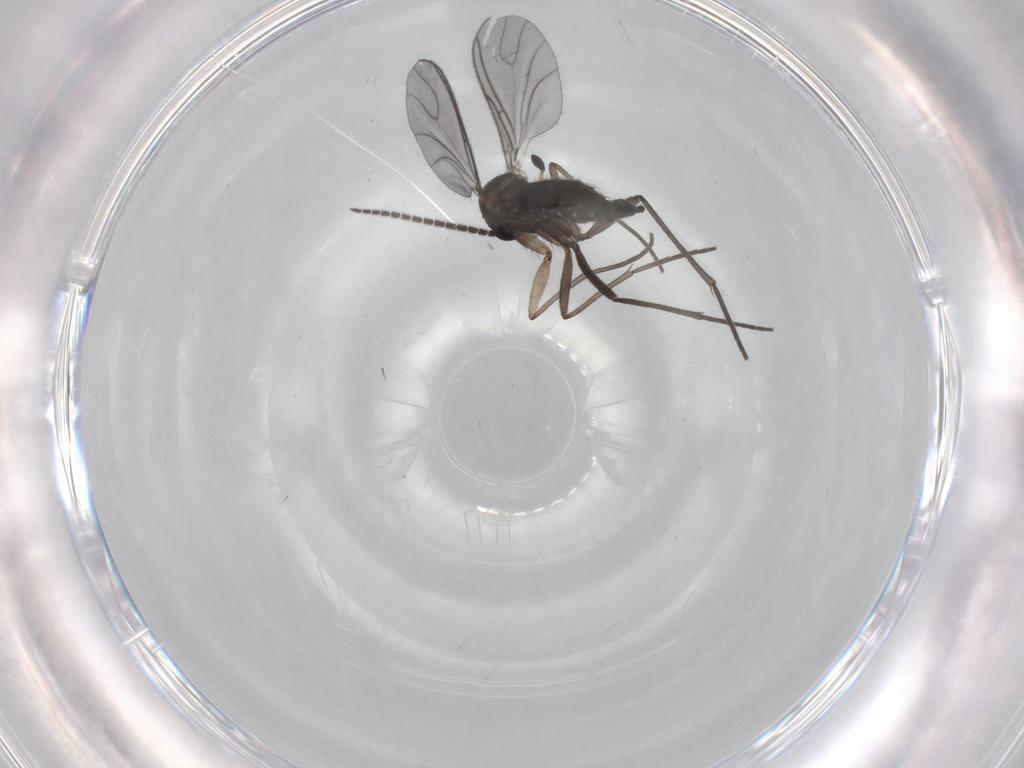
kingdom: Animalia
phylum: Arthropoda
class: Insecta
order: Diptera
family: Sciaridae
